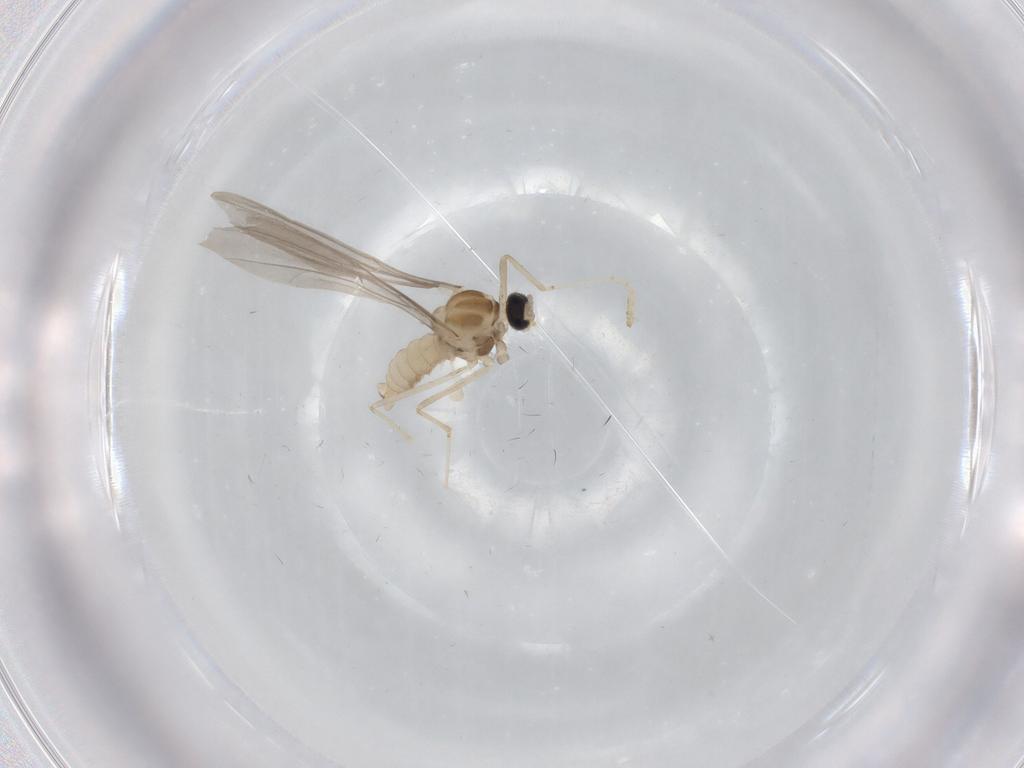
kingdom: Animalia
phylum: Arthropoda
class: Insecta
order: Diptera
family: Cecidomyiidae
